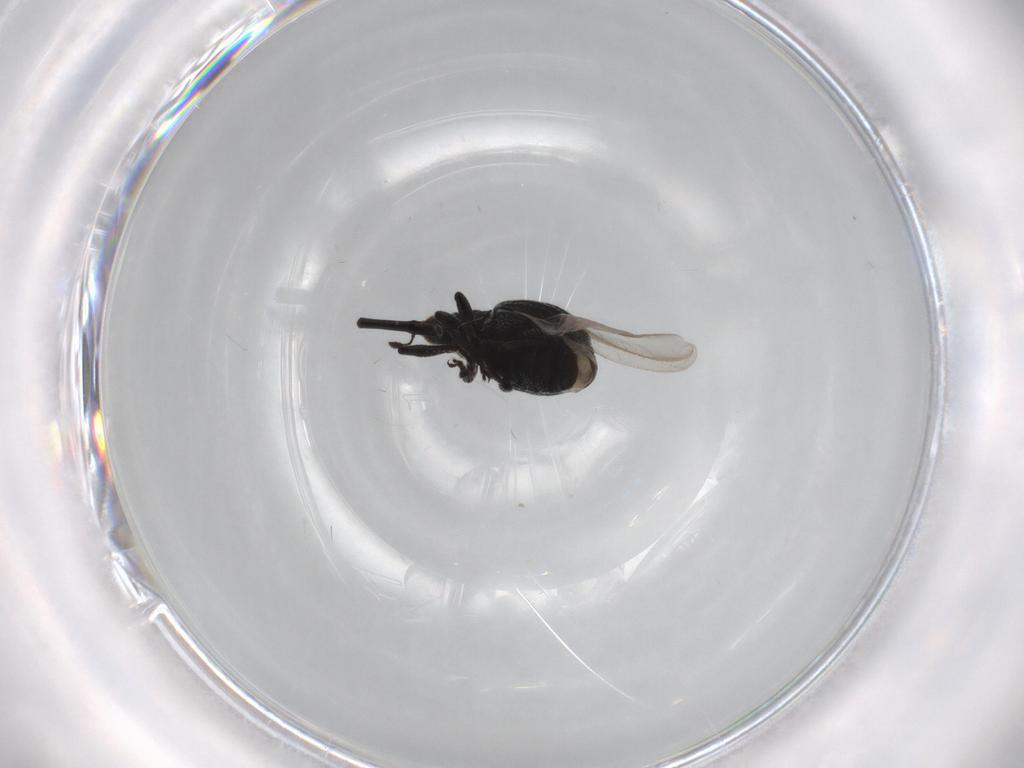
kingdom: Animalia
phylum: Arthropoda
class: Insecta
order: Coleoptera
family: Brentidae
